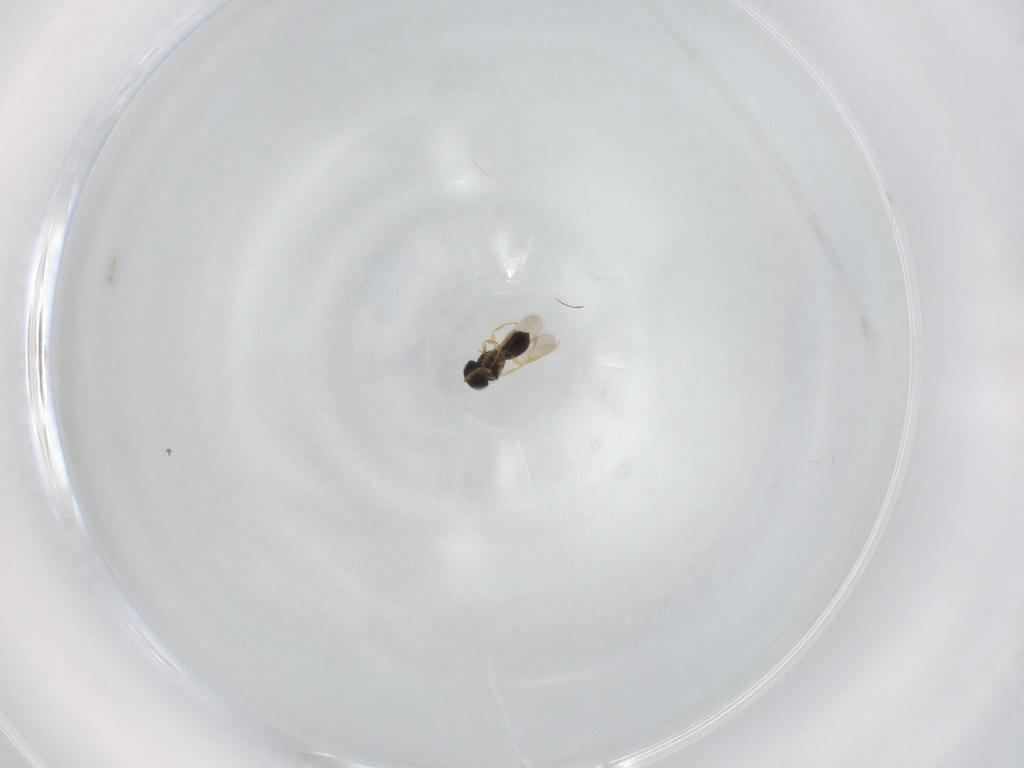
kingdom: Animalia
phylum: Arthropoda
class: Insecta
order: Hymenoptera
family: Scelionidae
